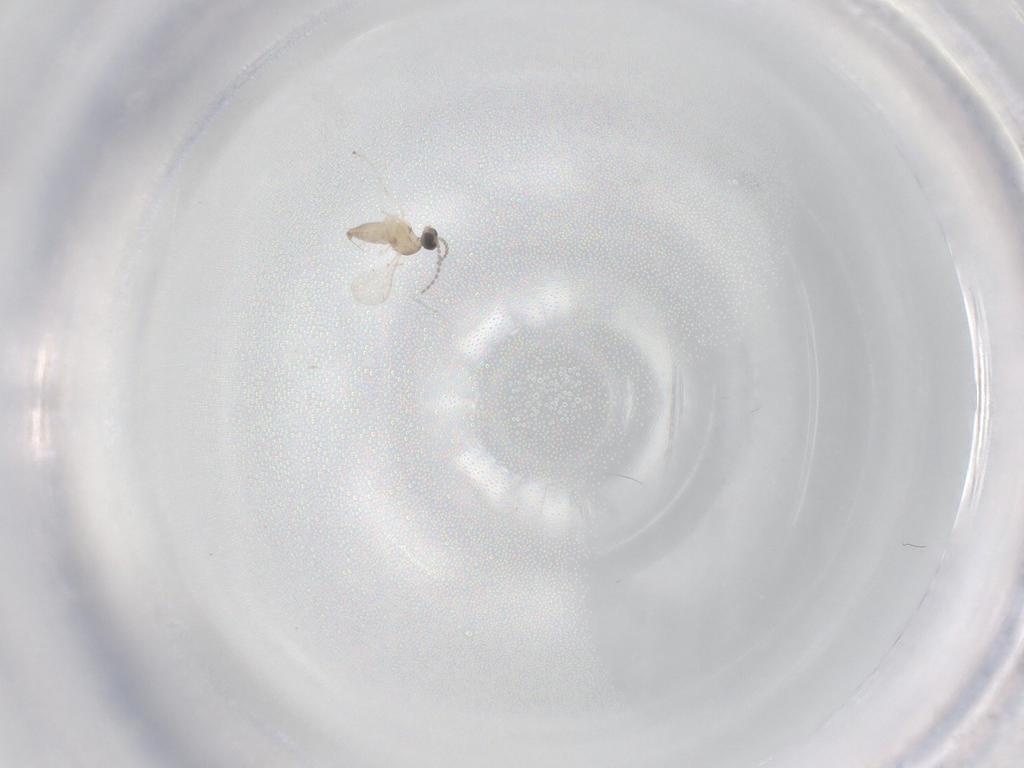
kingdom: Animalia
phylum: Arthropoda
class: Insecta
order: Diptera
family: Cecidomyiidae
